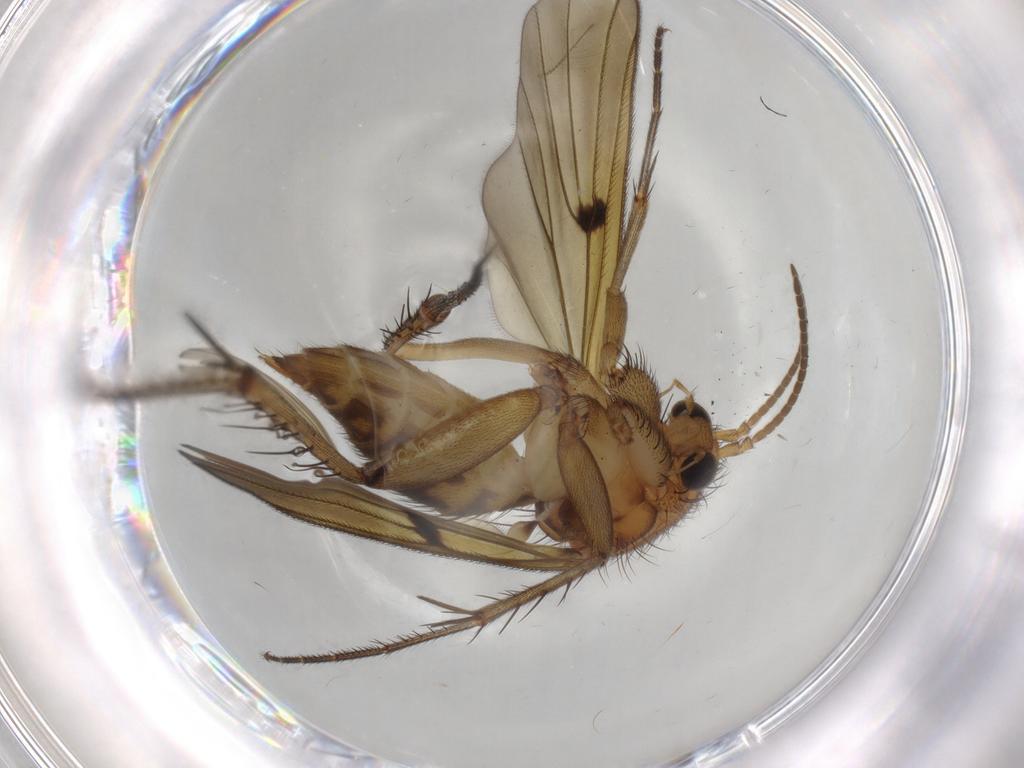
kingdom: Animalia
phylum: Arthropoda
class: Insecta
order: Diptera
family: Sciaridae
